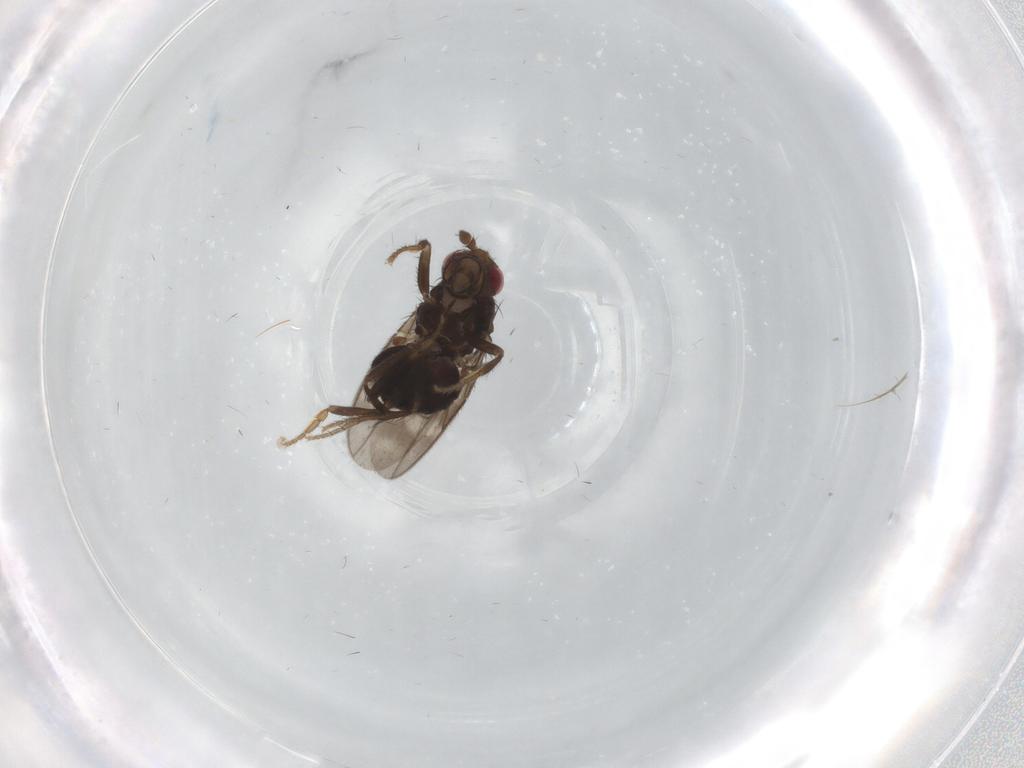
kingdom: Animalia
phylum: Arthropoda
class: Insecta
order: Diptera
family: Sphaeroceridae
